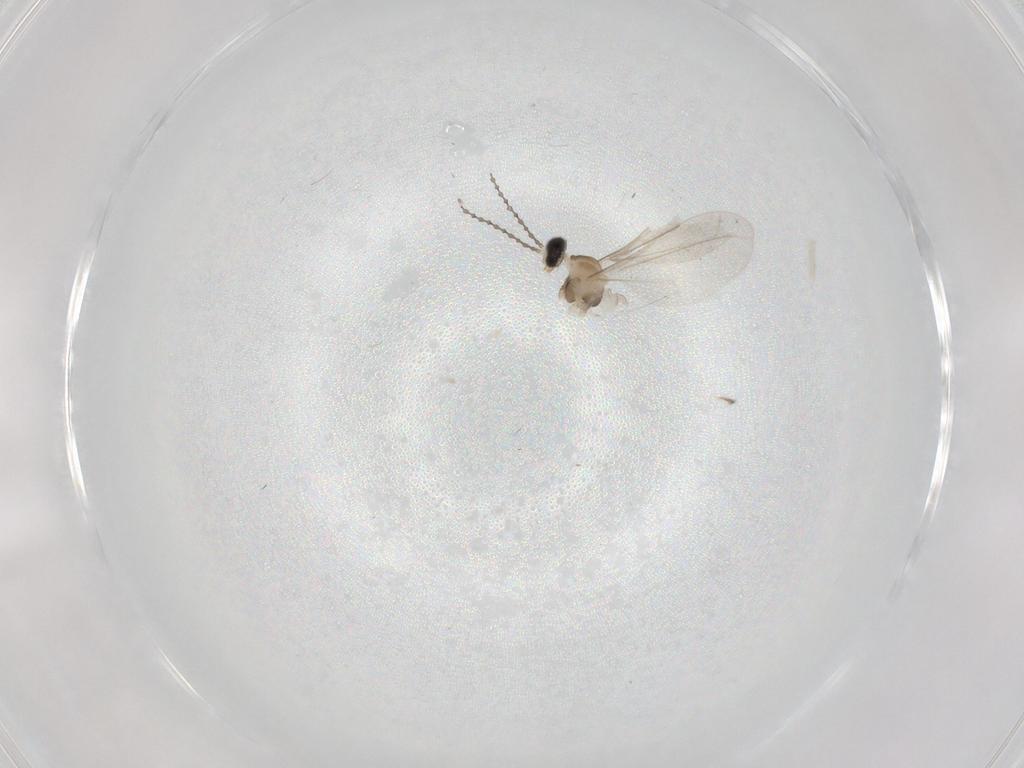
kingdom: Animalia
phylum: Arthropoda
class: Insecta
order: Diptera
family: Cecidomyiidae
